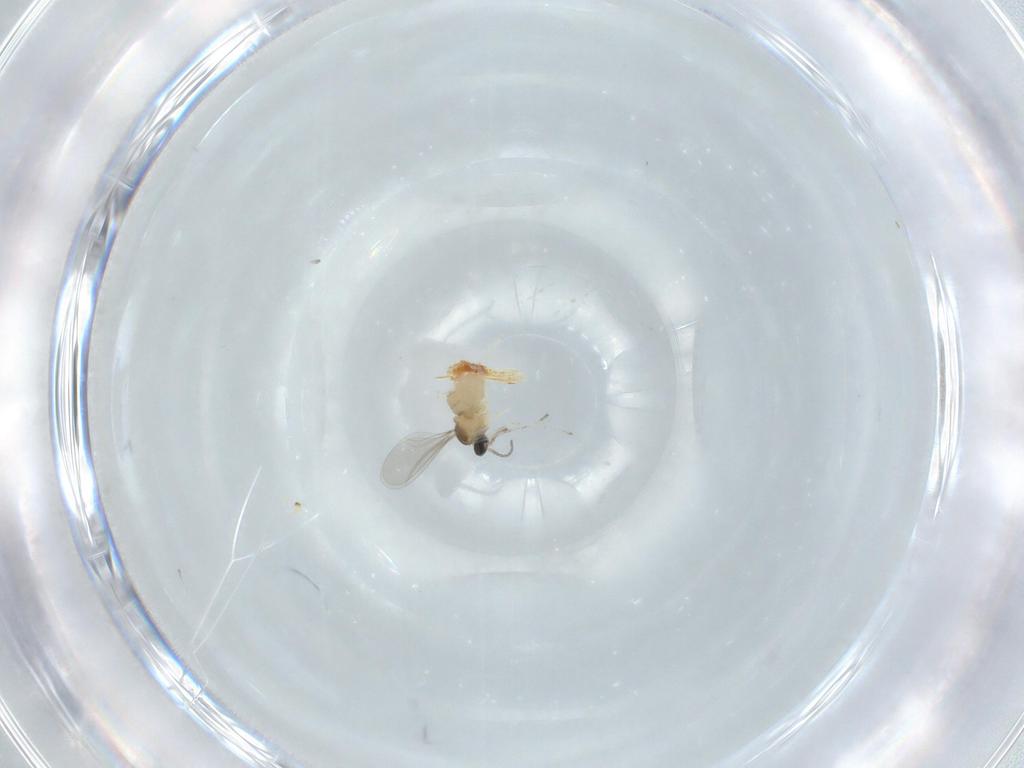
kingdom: Animalia
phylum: Arthropoda
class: Insecta
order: Diptera
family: Cecidomyiidae
